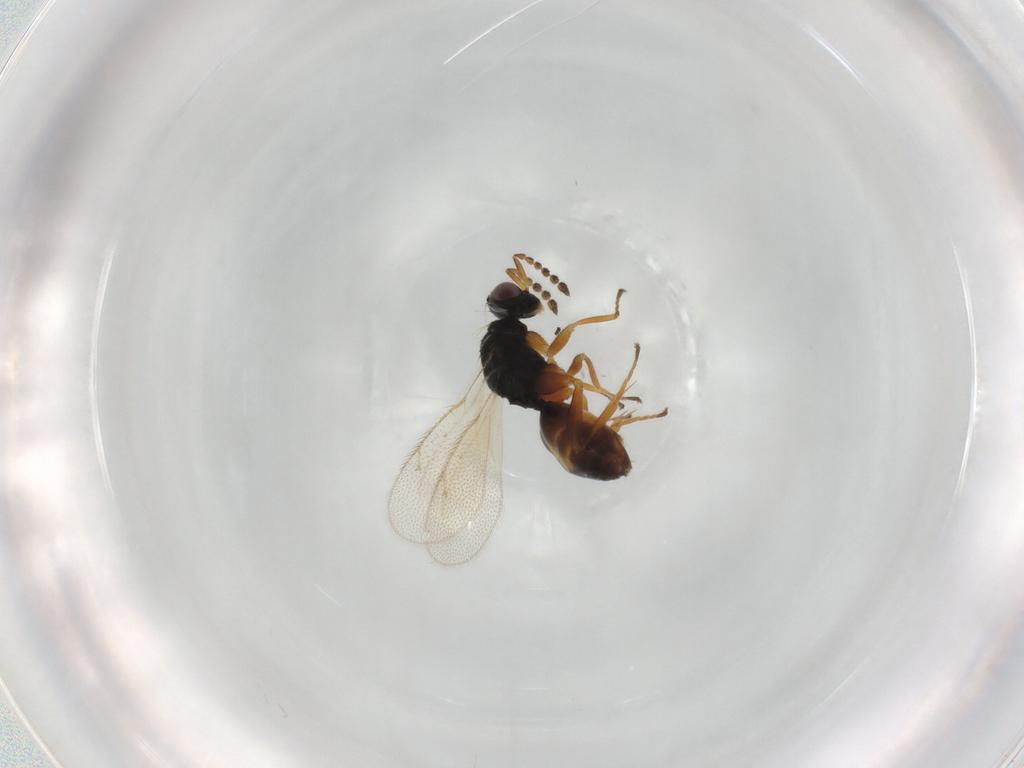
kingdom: Animalia
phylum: Arthropoda
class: Insecta
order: Hymenoptera
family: Eulophidae
